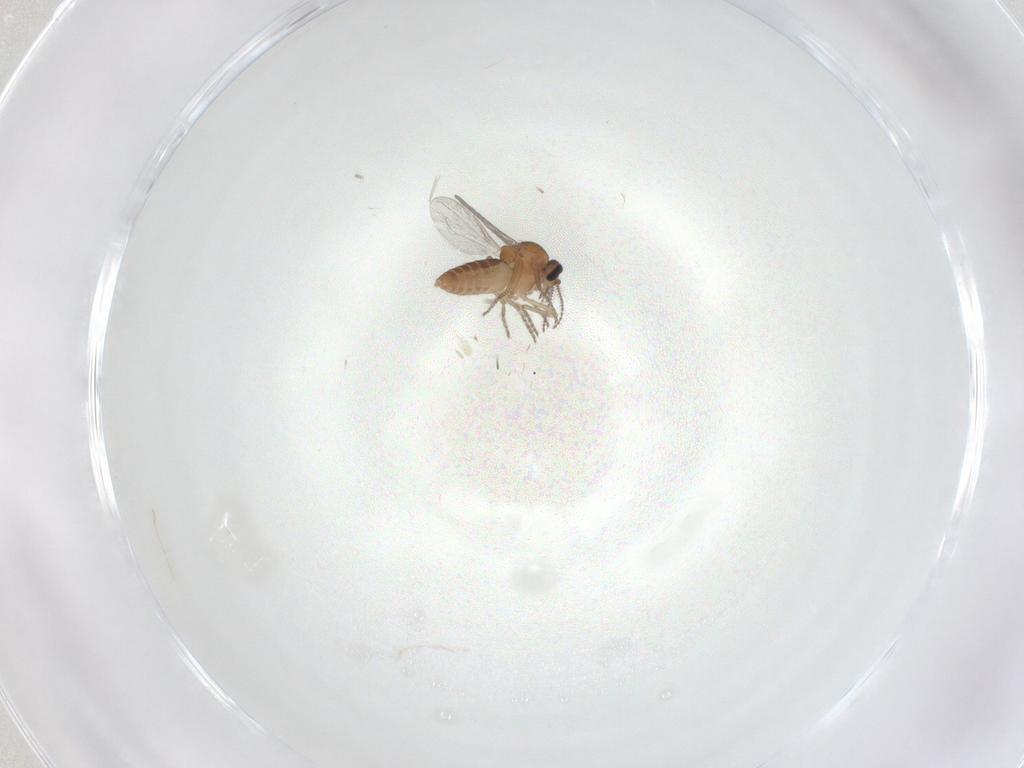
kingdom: Animalia
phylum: Arthropoda
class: Insecta
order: Diptera
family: Ceratopogonidae
